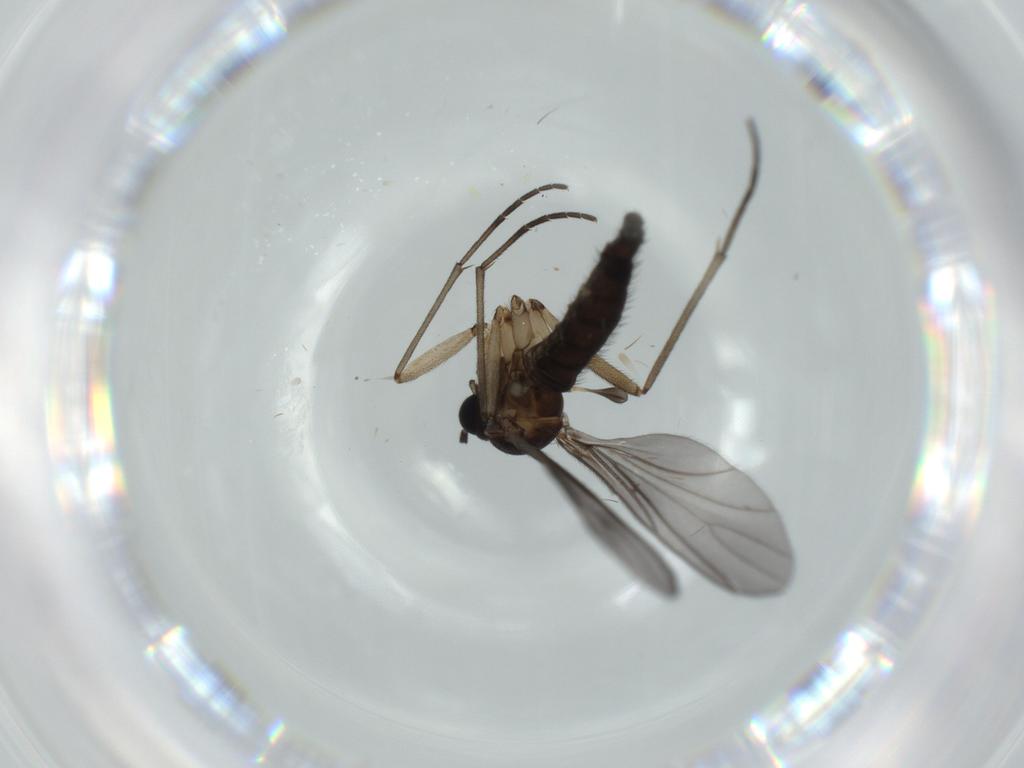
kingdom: Animalia
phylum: Arthropoda
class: Insecta
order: Diptera
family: Sciaridae
